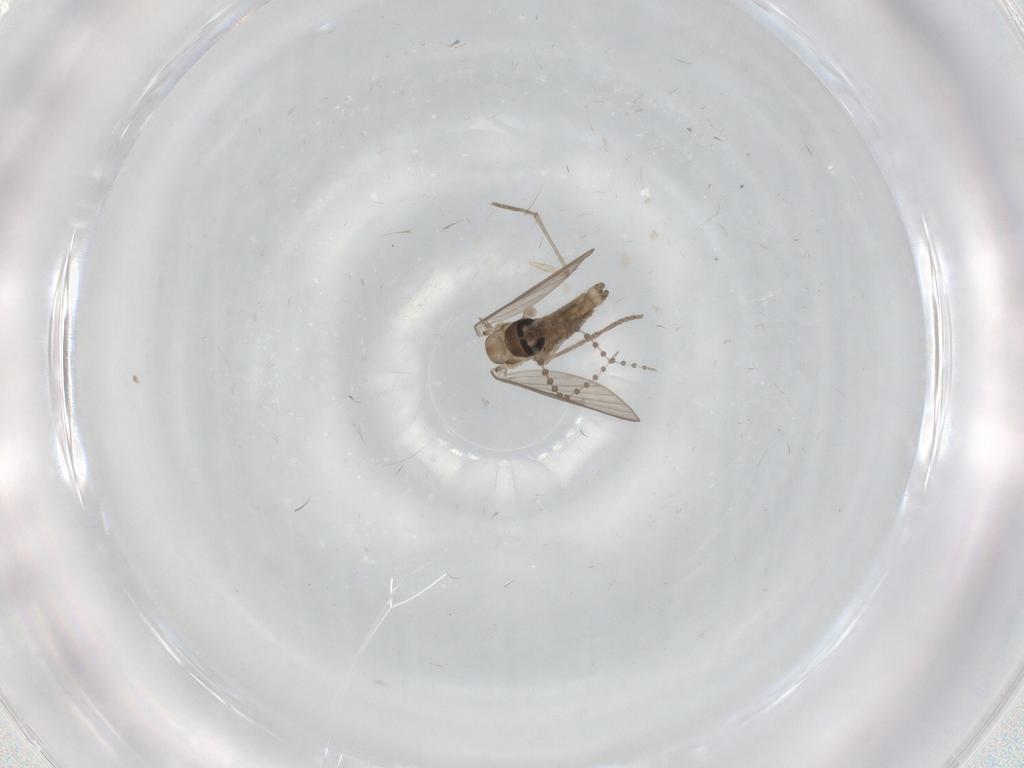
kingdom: Animalia
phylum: Arthropoda
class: Insecta
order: Diptera
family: Psychodidae
